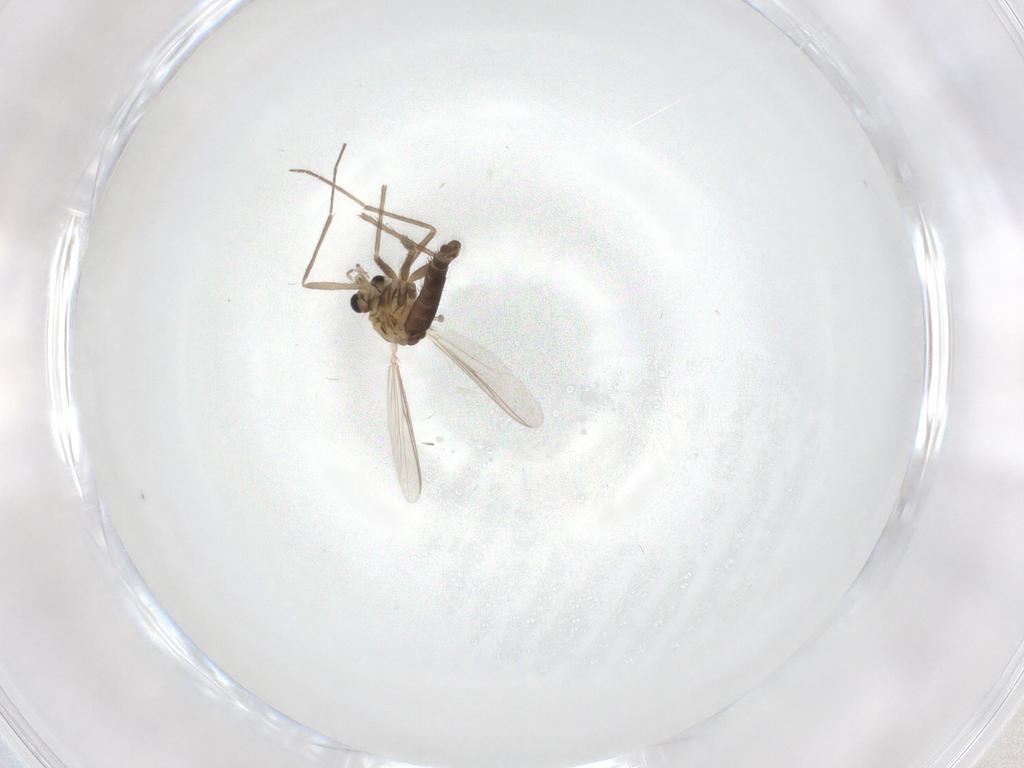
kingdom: Animalia
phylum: Arthropoda
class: Insecta
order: Diptera
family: Chironomidae
